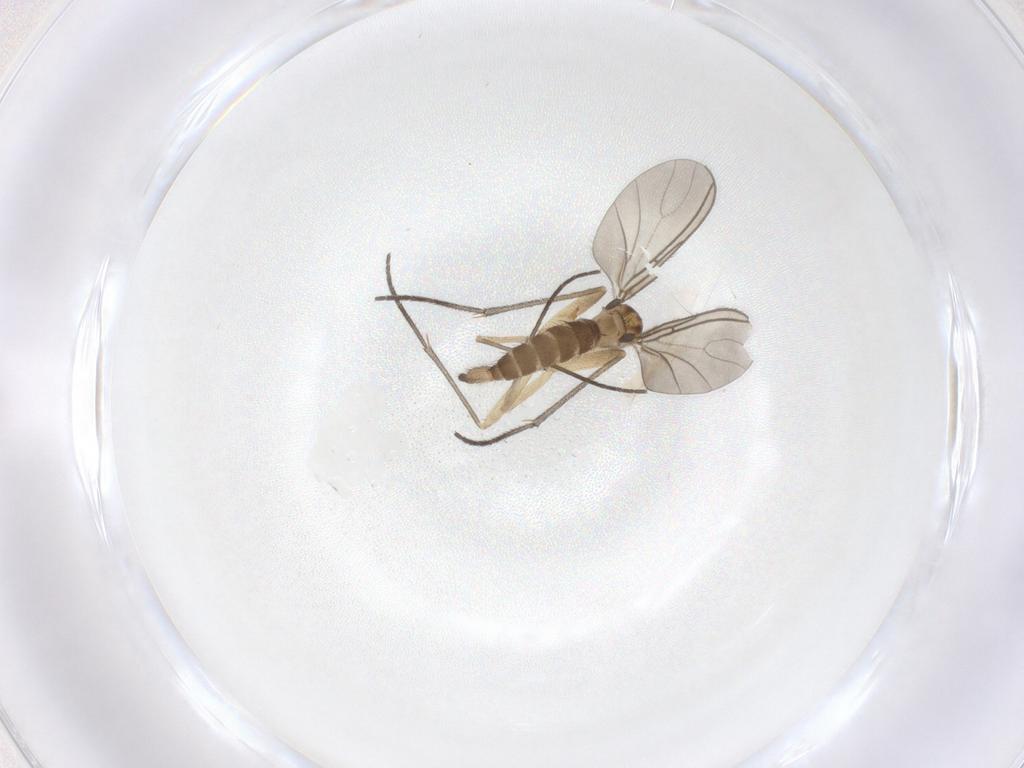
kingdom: Animalia
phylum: Arthropoda
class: Insecta
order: Diptera
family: Sciaridae
